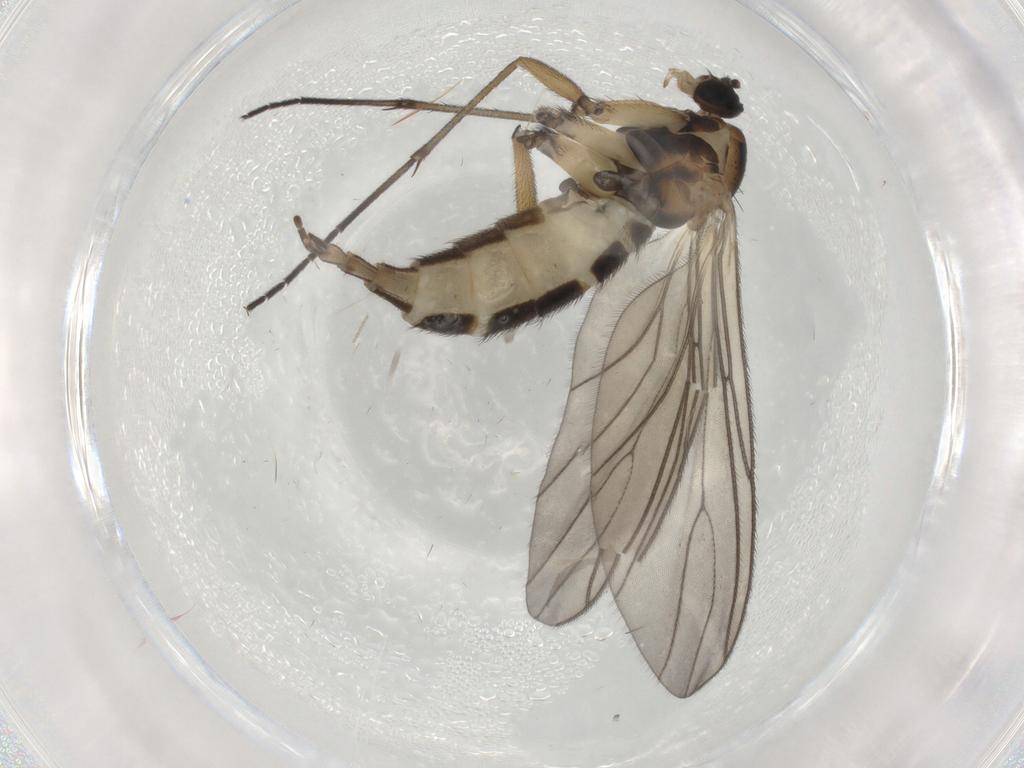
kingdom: Animalia
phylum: Arthropoda
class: Insecta
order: Diptera
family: Sciaridae
